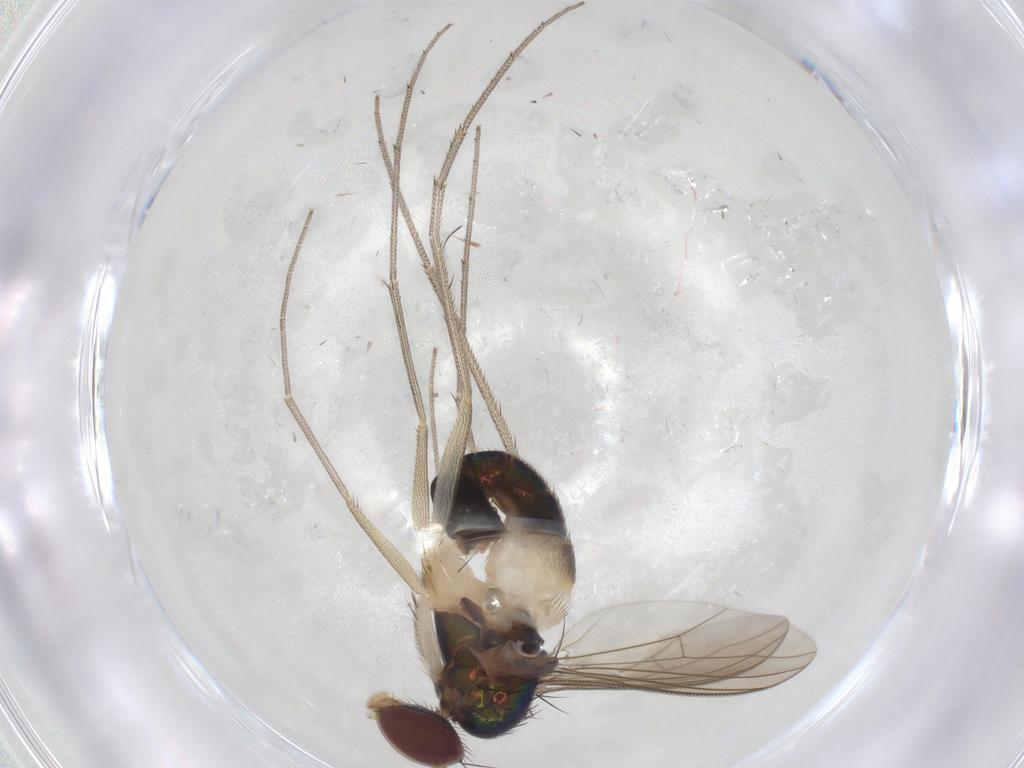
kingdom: Animalia
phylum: Arthropoda
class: Insecta
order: Diptera
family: Dolichopodidae
